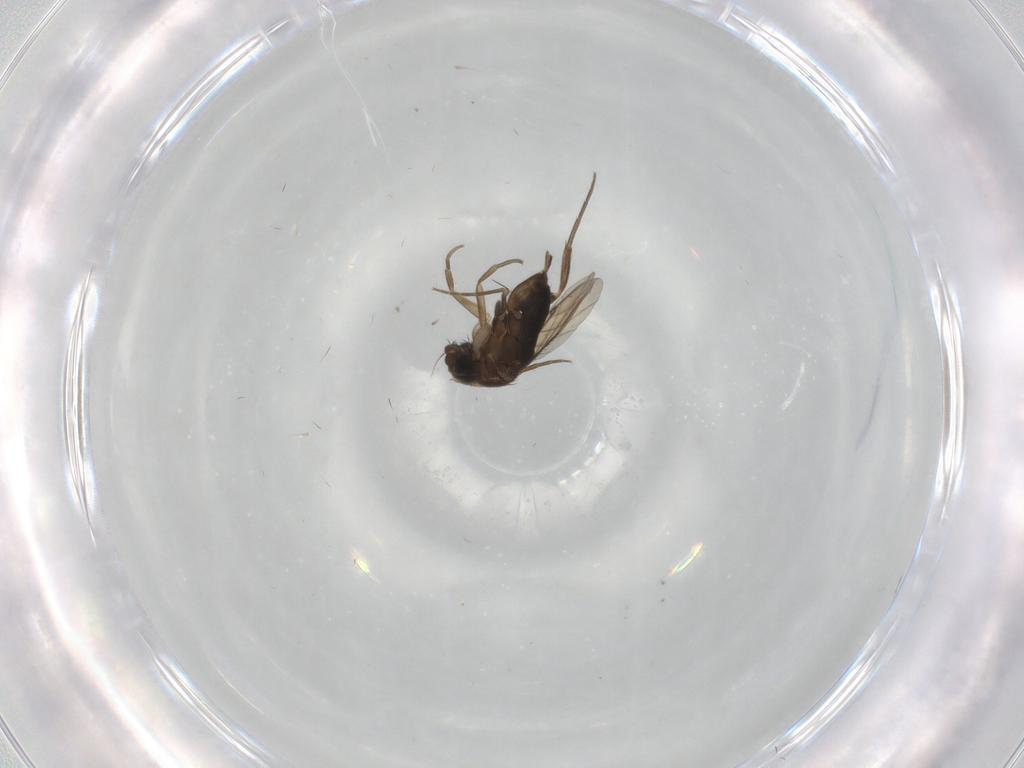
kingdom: Animalia
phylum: Arthropoda
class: Insecta
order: Diptera
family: Phoridae
